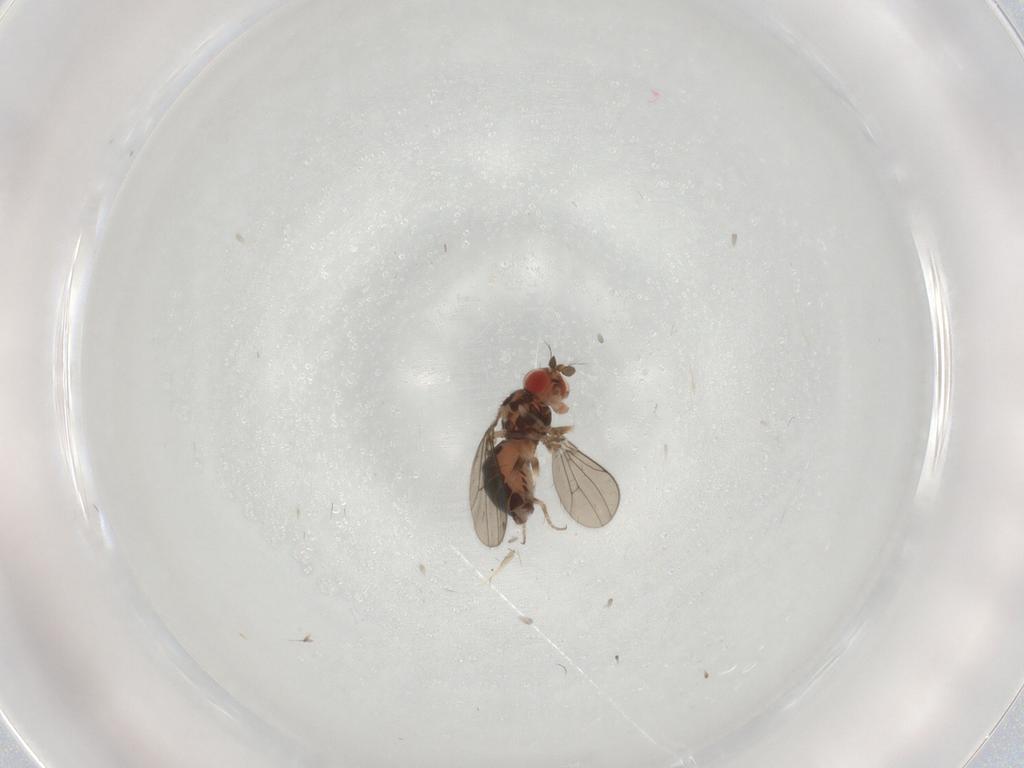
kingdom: Animalia
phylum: Arthropoda
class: Insecta
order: Diptera
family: Drosophilidae
